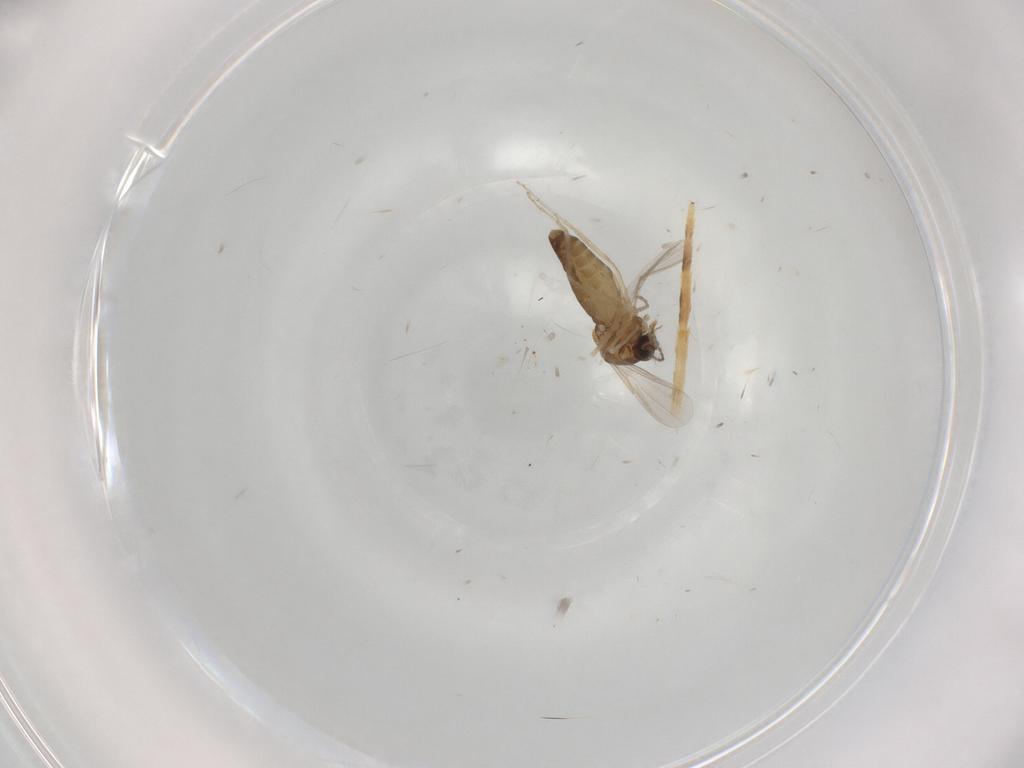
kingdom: Animalia
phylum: Arthropoda
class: Insecta
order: Diptera
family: Ceratopogonidae
